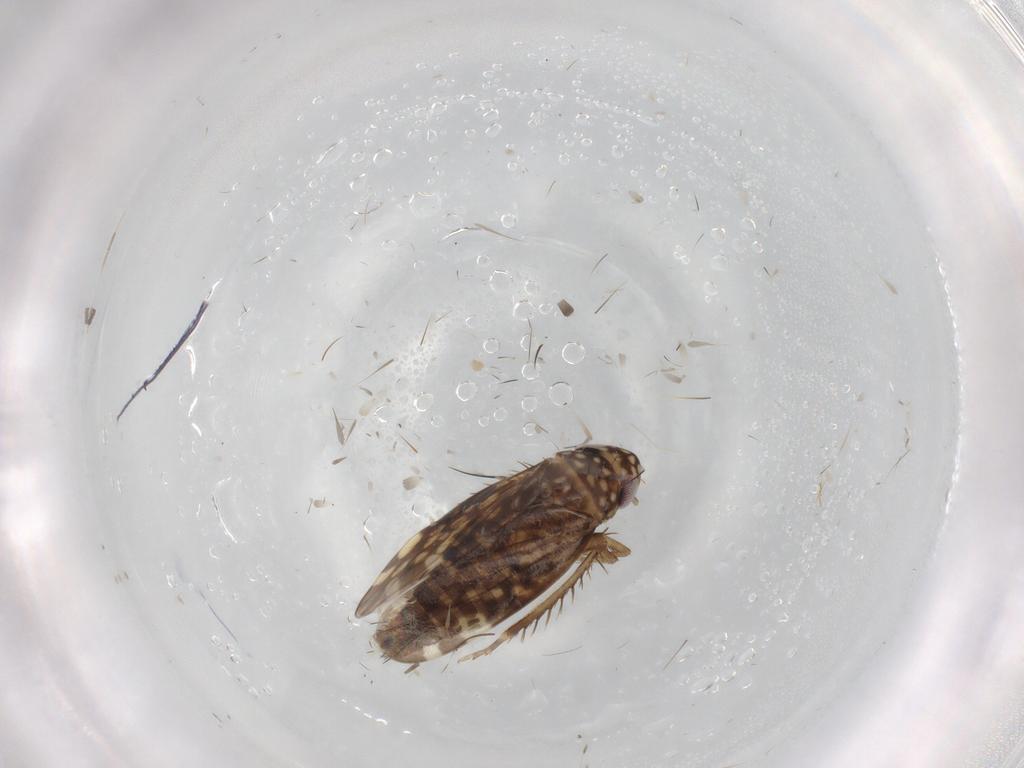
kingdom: Animalia
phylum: Arthropoda
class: Insecta
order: Hemiptera
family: Cicadellidae
